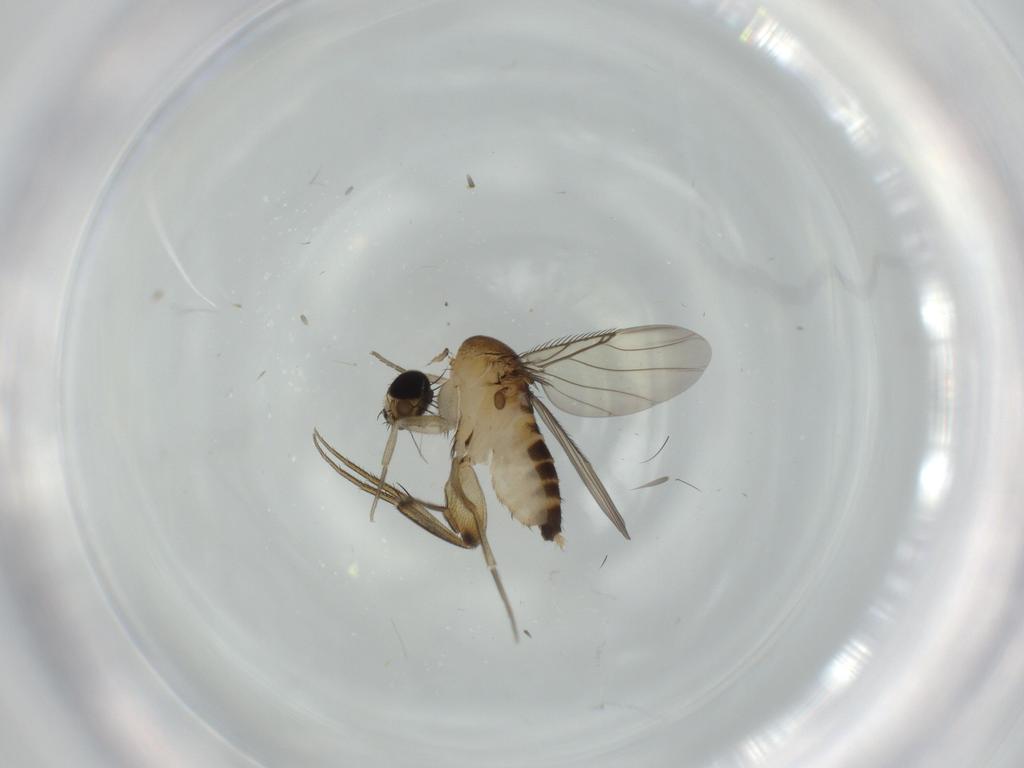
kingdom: Animalia
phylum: Arthropoda
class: Insecta
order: Diptera
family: Phoridae
